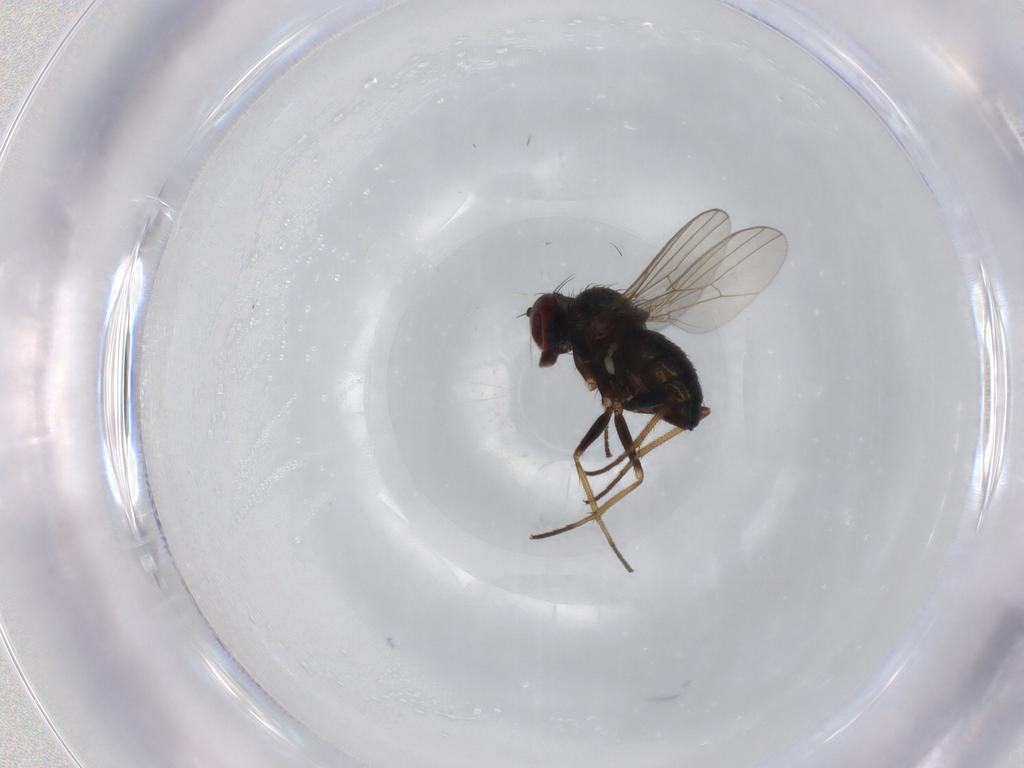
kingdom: Animalia
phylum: Arthropoda
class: Insecta
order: Diptera
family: Dolichopodidae
